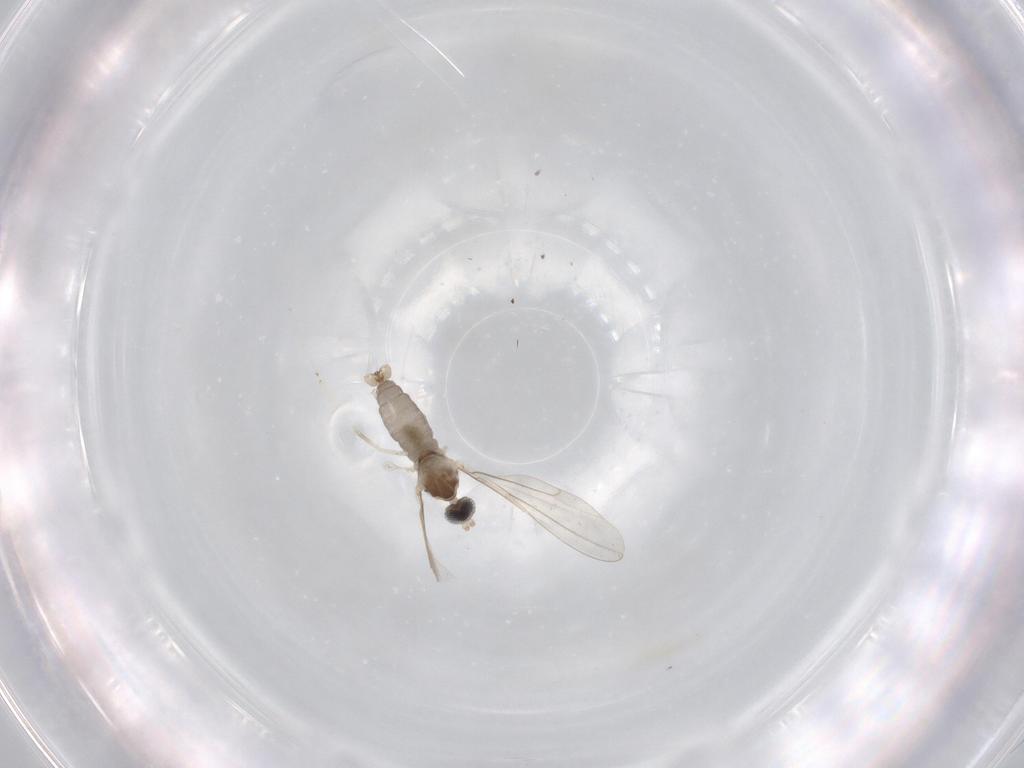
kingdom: Animalia
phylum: Arthropoda
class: Insecta
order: Diptera
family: Cecidomyiidae
